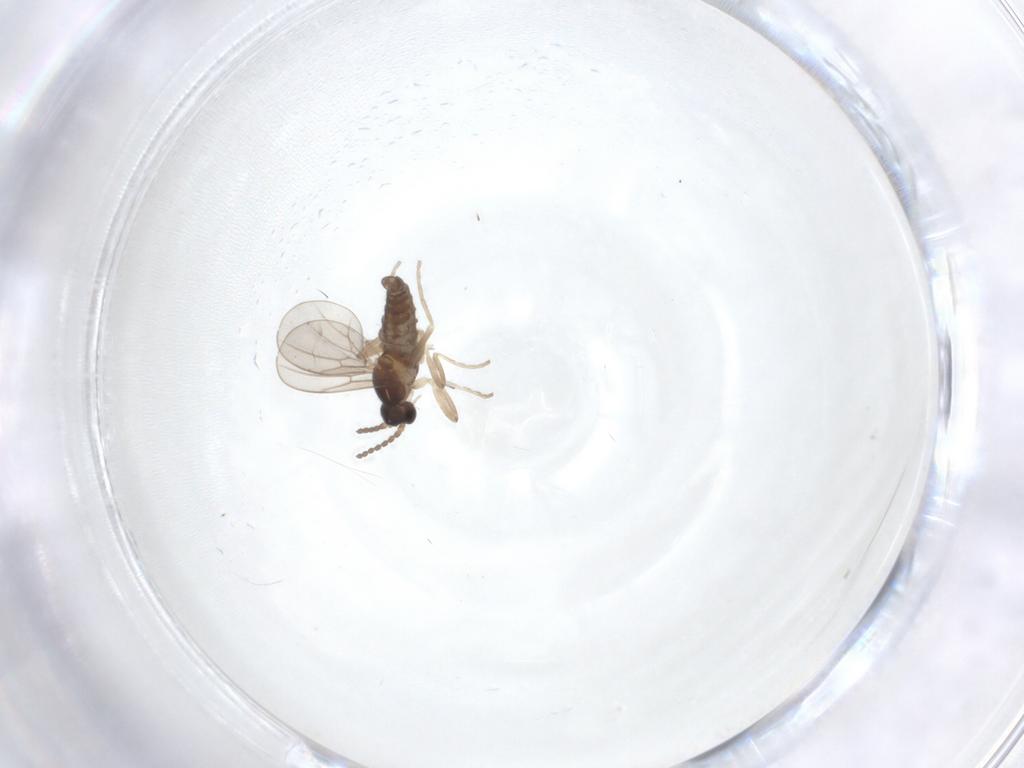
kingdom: Animalia
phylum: Arthropoda
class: Insecta
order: Diptera
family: Cecidomyiidae
